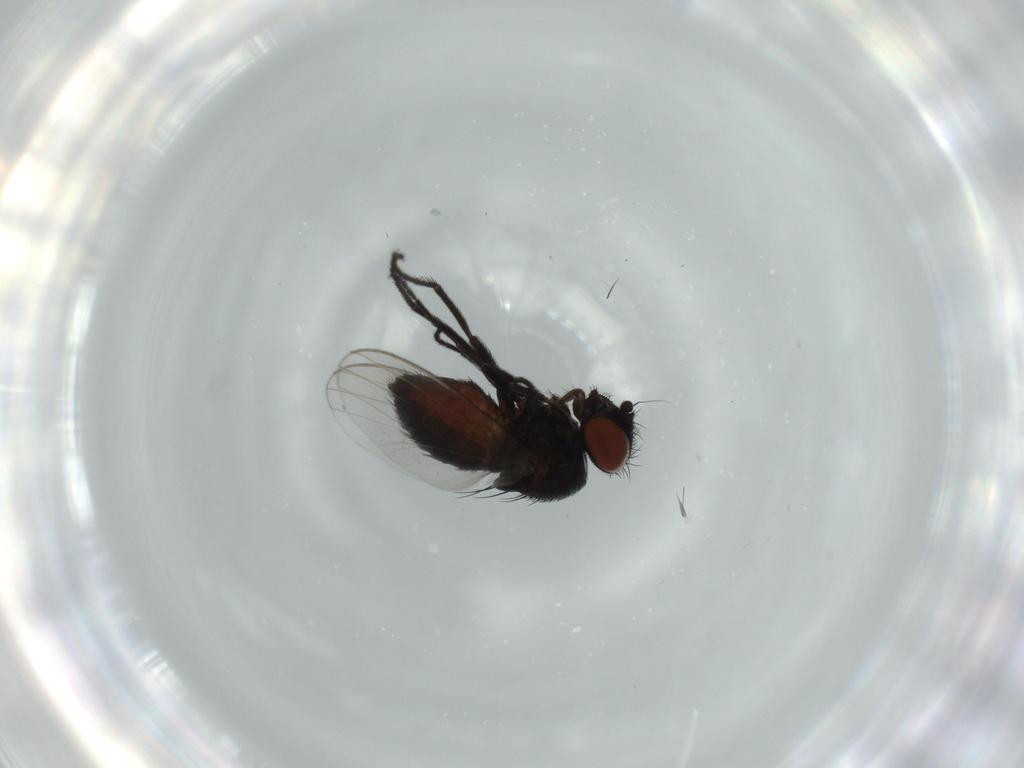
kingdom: Animalia
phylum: Arthropoda
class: Insecta
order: Diptera
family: Milichiidae
